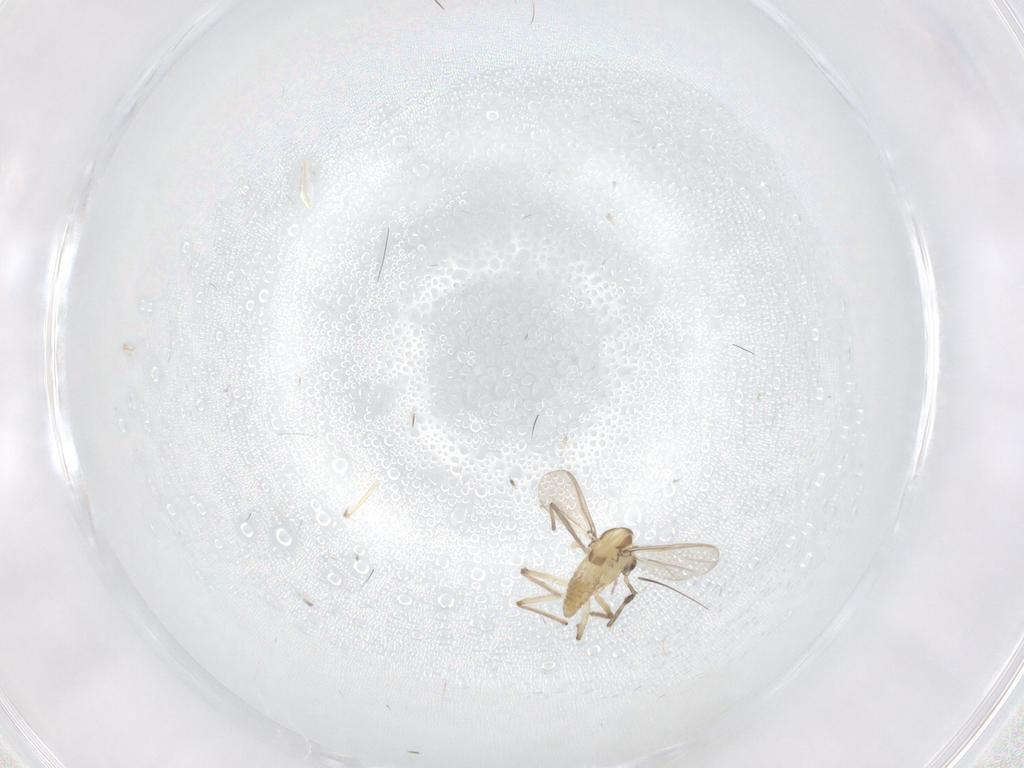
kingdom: Animalia
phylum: Arthropoda
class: Insecta
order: Diptera
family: Chironomidae
